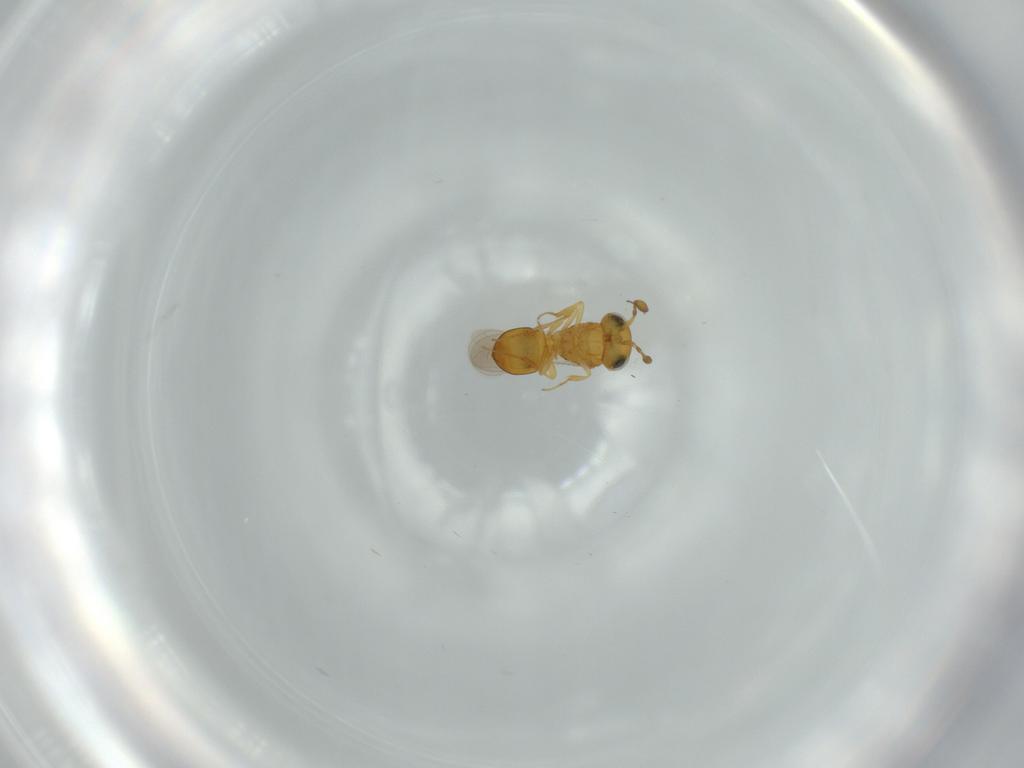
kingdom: Animalia
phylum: Arthropoda
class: Insecta
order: Hymenoptera
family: Scelionidae
